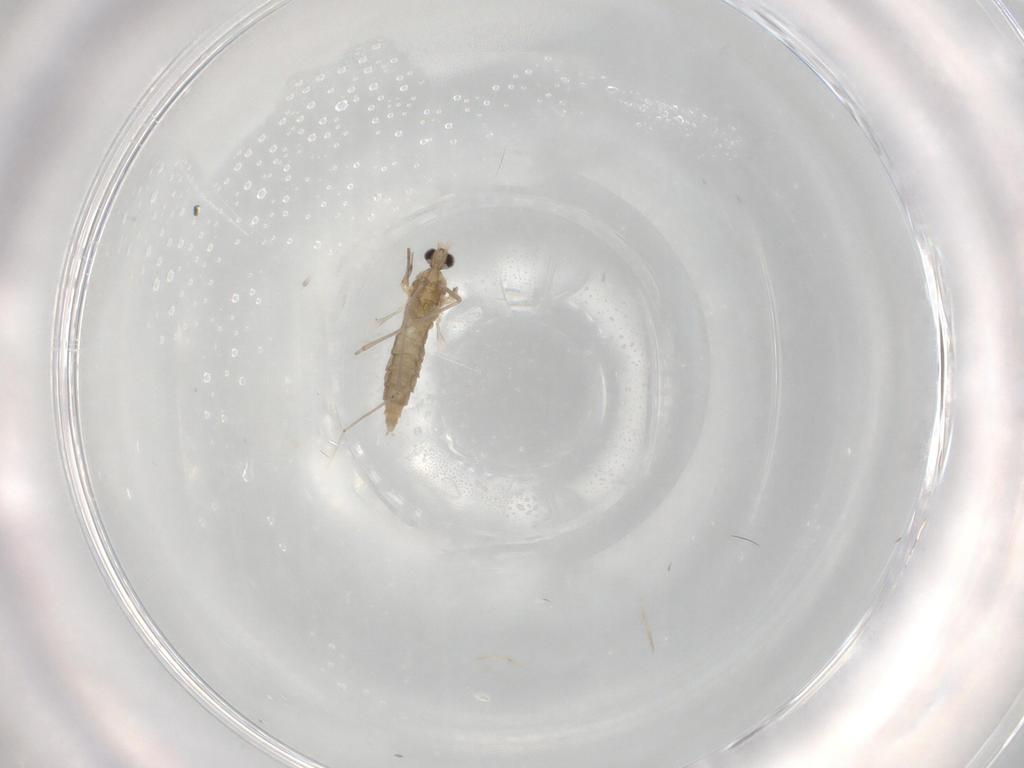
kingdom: Animalia
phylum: Arthropoda
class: Insecta
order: Diptera
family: Cecidomyiidae
